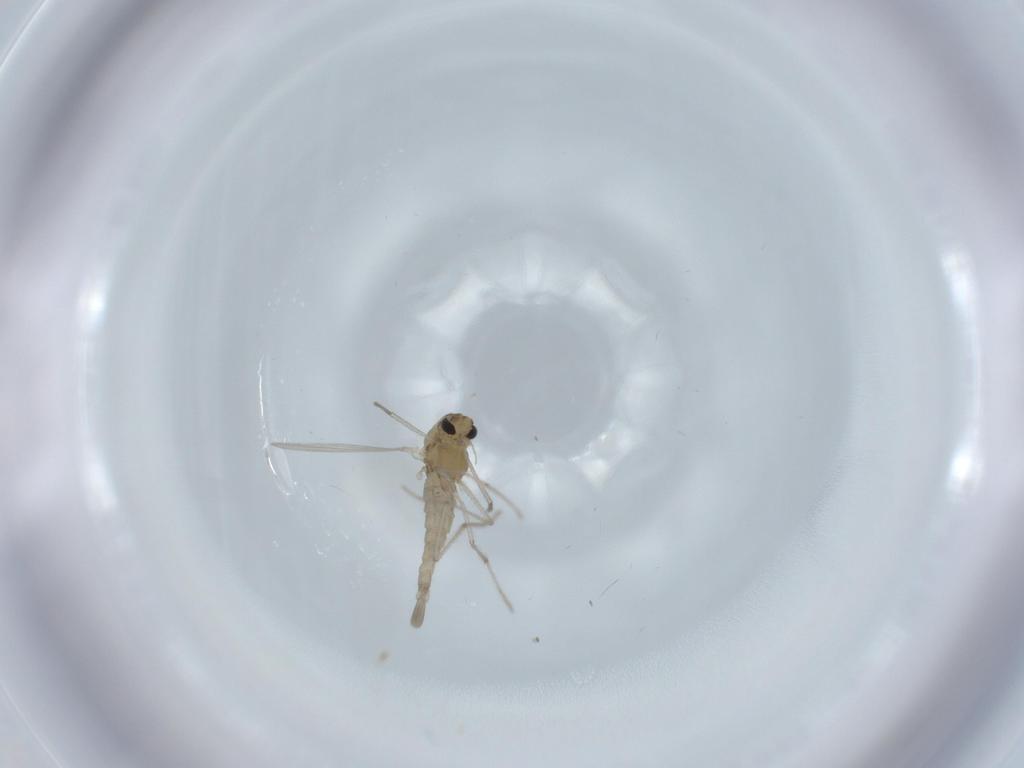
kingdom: Animalia
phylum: Arthropoda
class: Insecta
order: Diptera
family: Chironomidae
